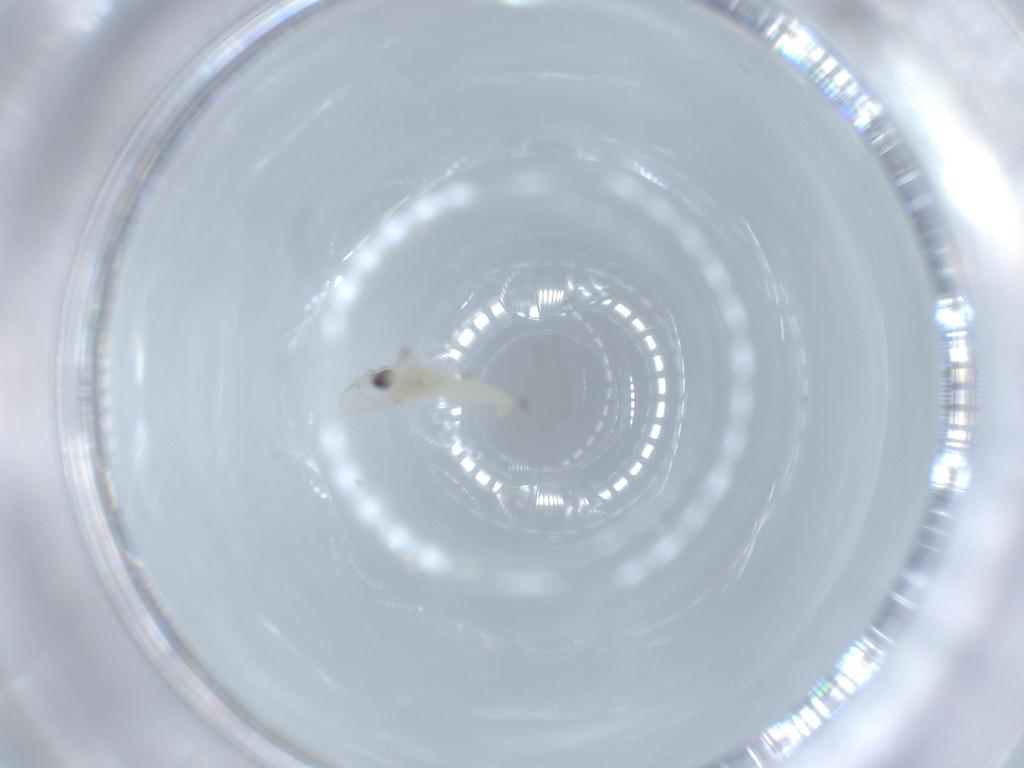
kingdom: Animalia
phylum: Arthropoda
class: Insecta
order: Diptera
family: Cecidomyiidae
